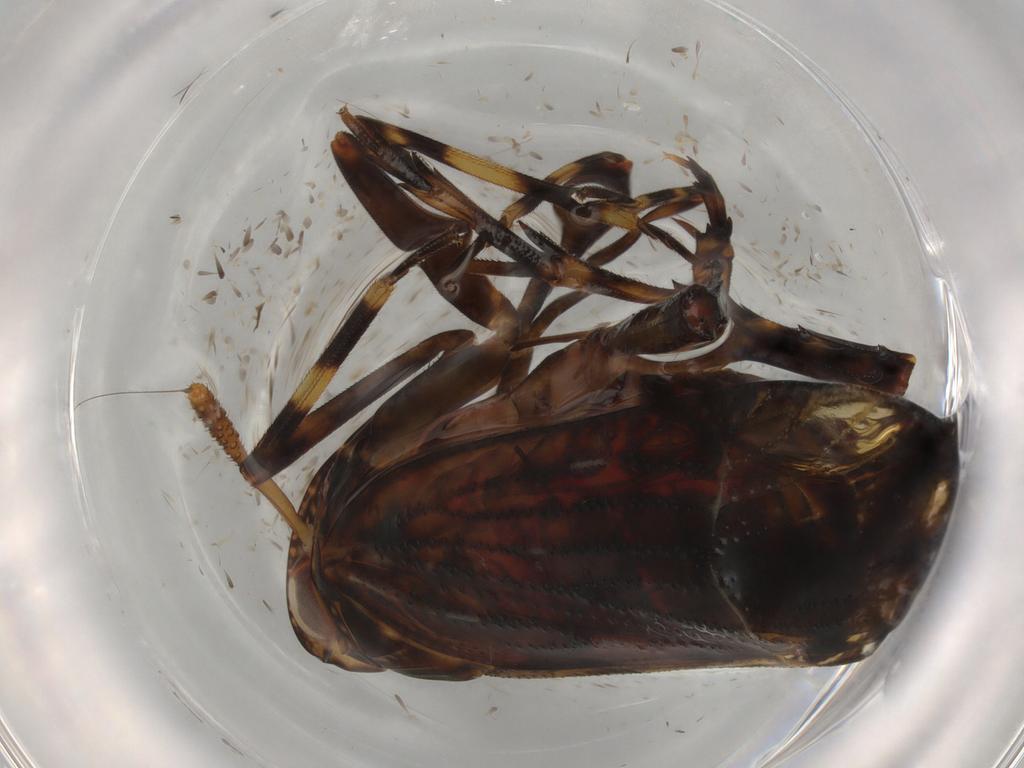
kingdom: Animalia
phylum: Arthropoda
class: Insecta
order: Hemiptera
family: Delphacidae
